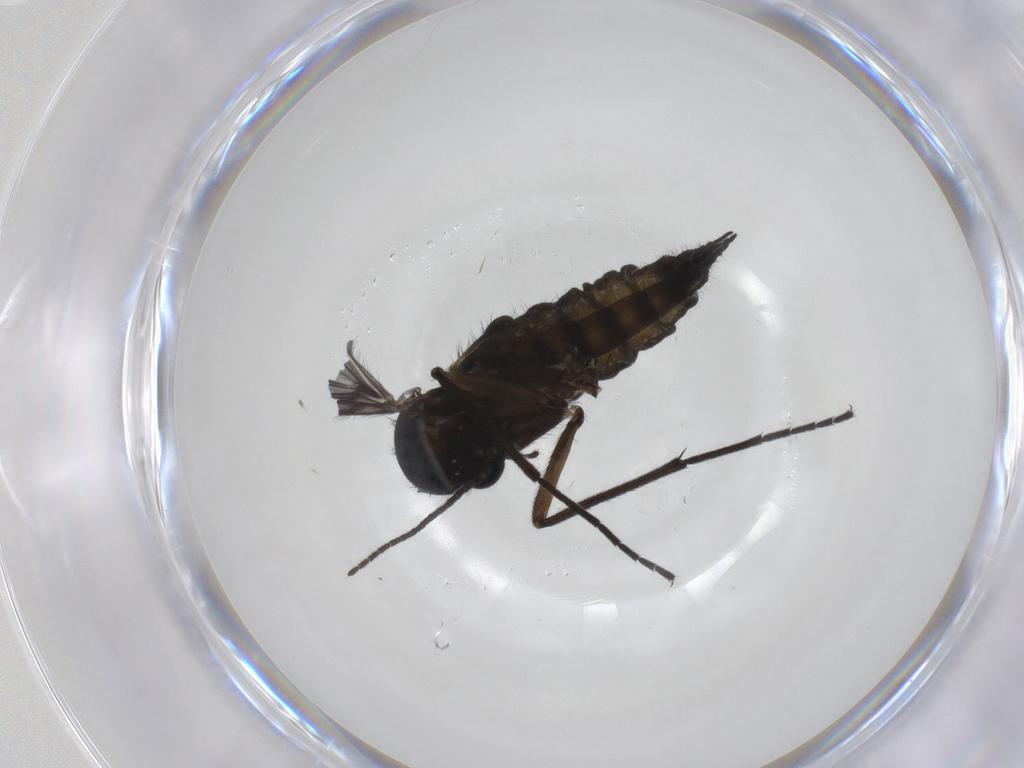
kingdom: Animalia
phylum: Arthropoda
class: Insecta
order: Diptera
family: Sciaridae
